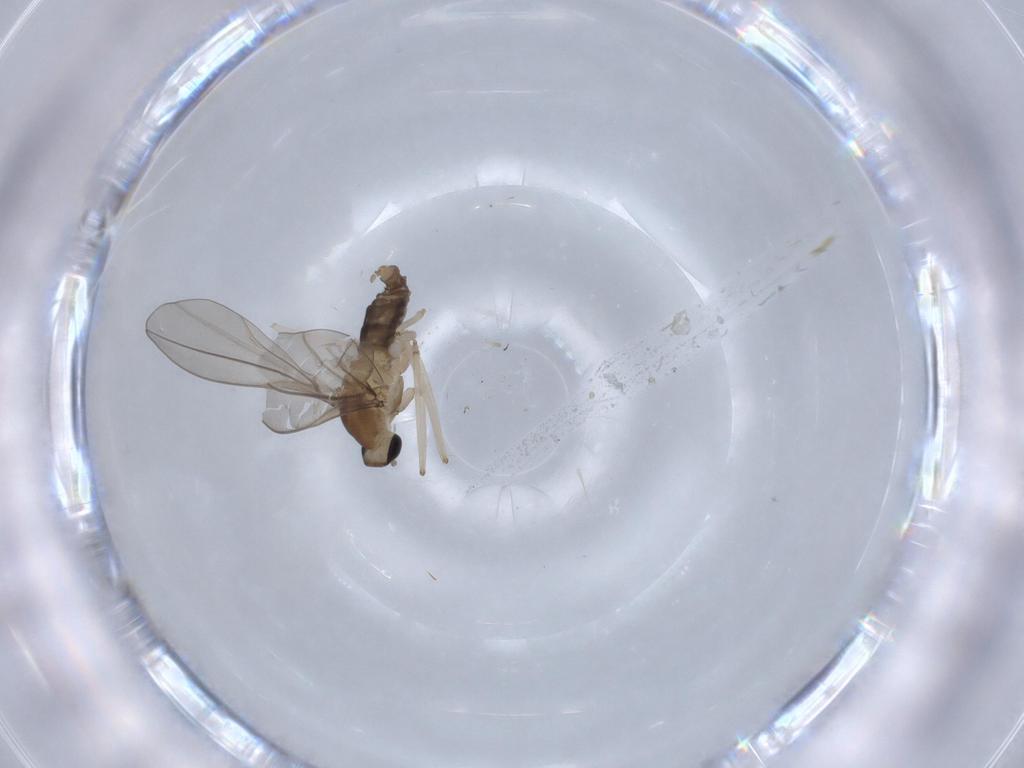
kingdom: Animalia
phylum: Arthropoda
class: Insecta
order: Diptera
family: Cecidomyiidae
